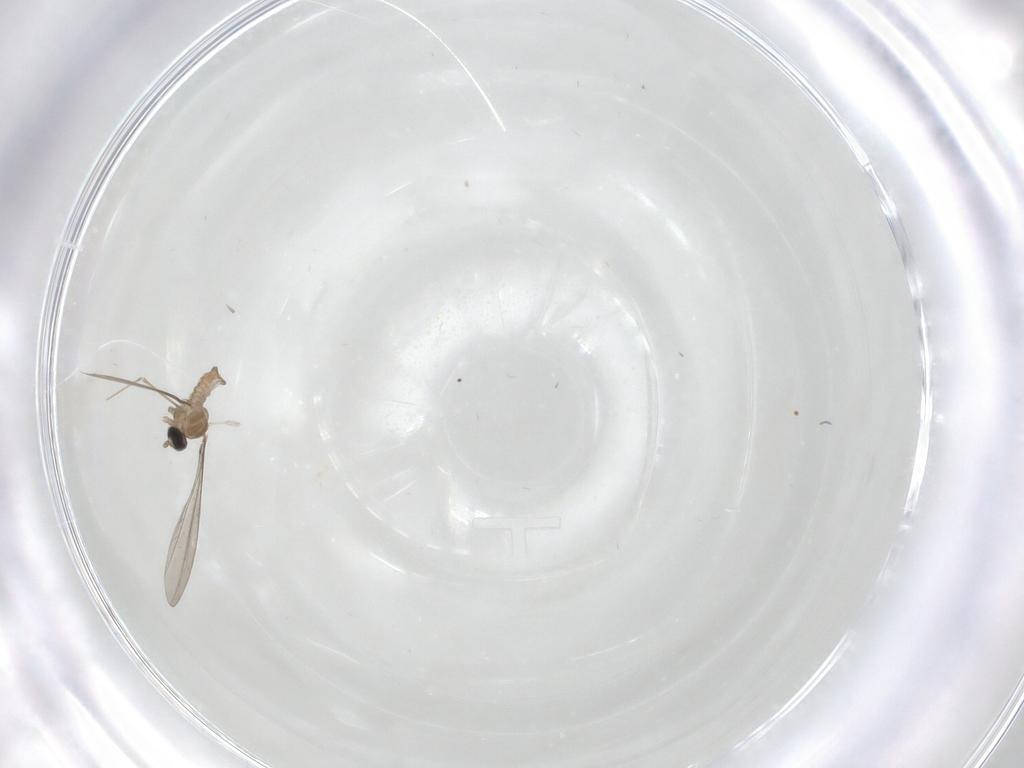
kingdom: Animalia
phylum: Arthropoda
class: Insecta
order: Diptera
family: Cecidomyiidae
